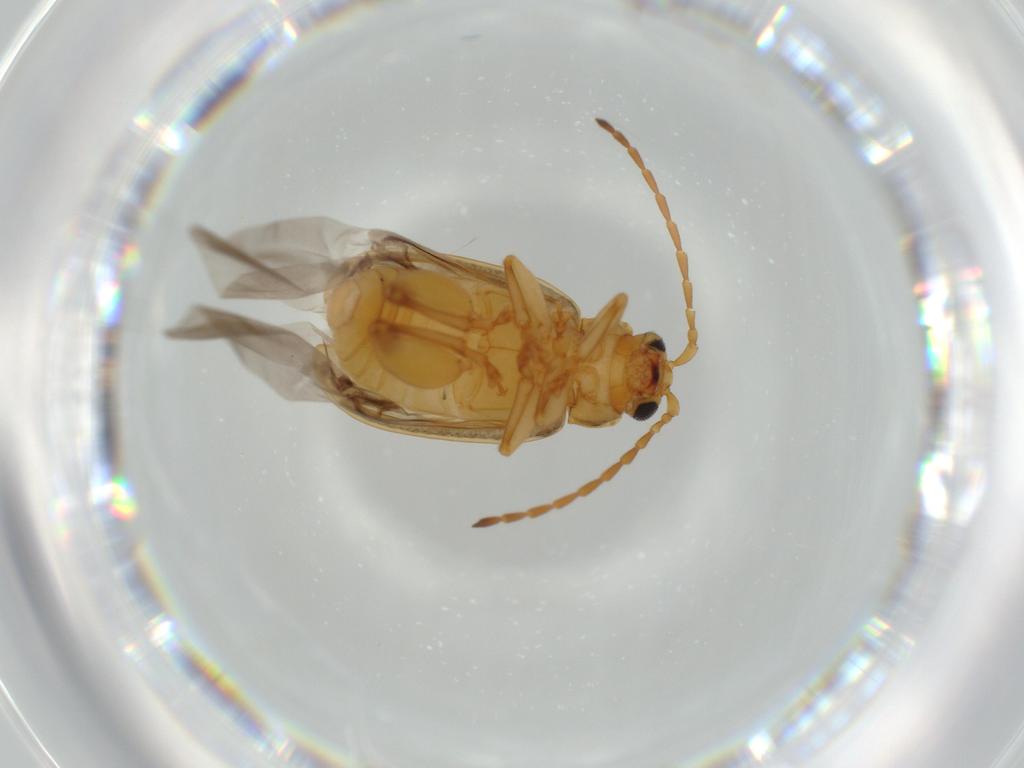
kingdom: Animalia
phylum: Arthropoda
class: Insecta
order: Coleoptera
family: Chrysomelidae
